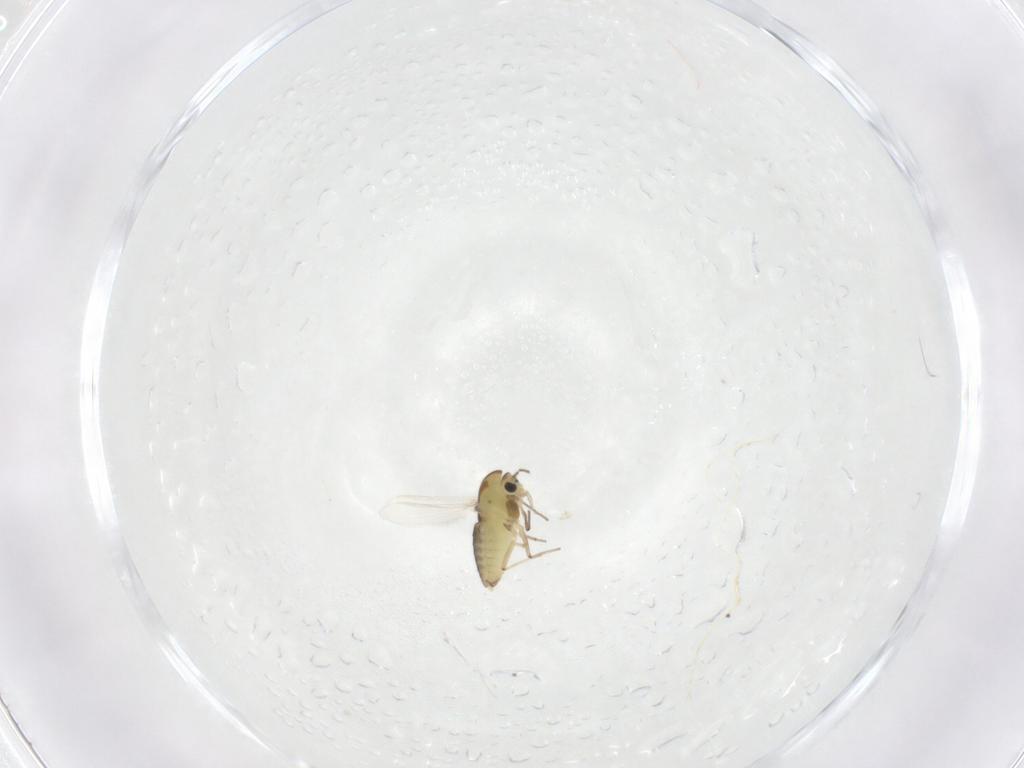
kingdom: Animalia
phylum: Arthropoda
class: Insecta
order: Diptera
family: Chironomidae
